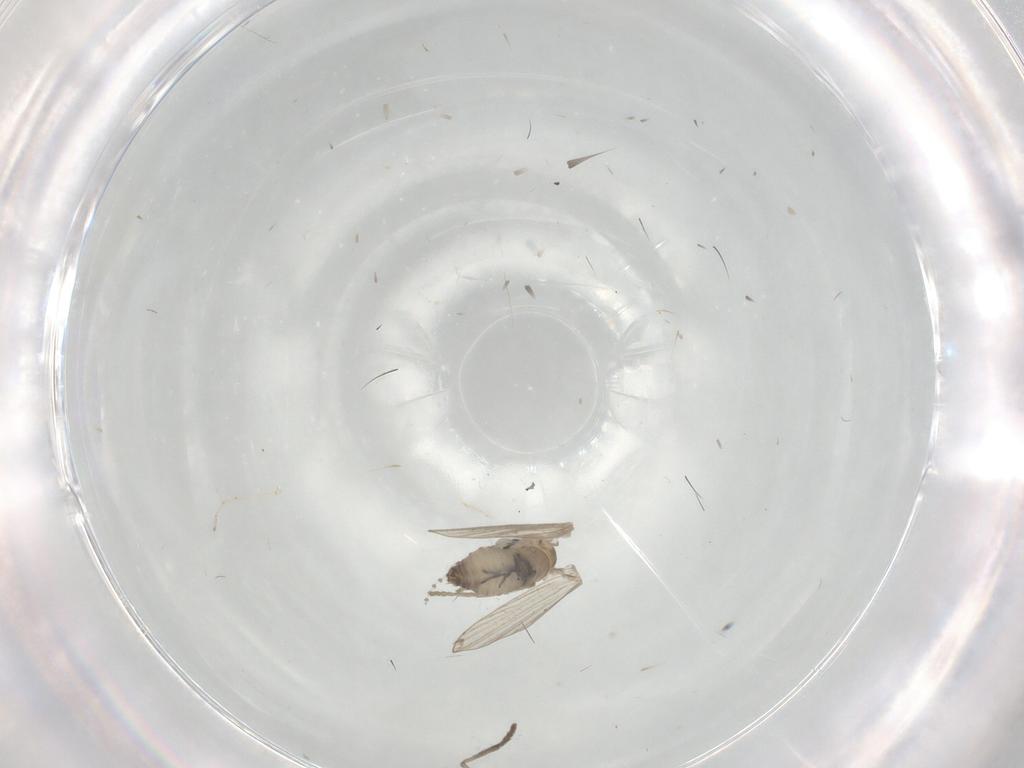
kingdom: Animalia
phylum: Arthropoda
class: Insecta
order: Diptera
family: Psychodidae
